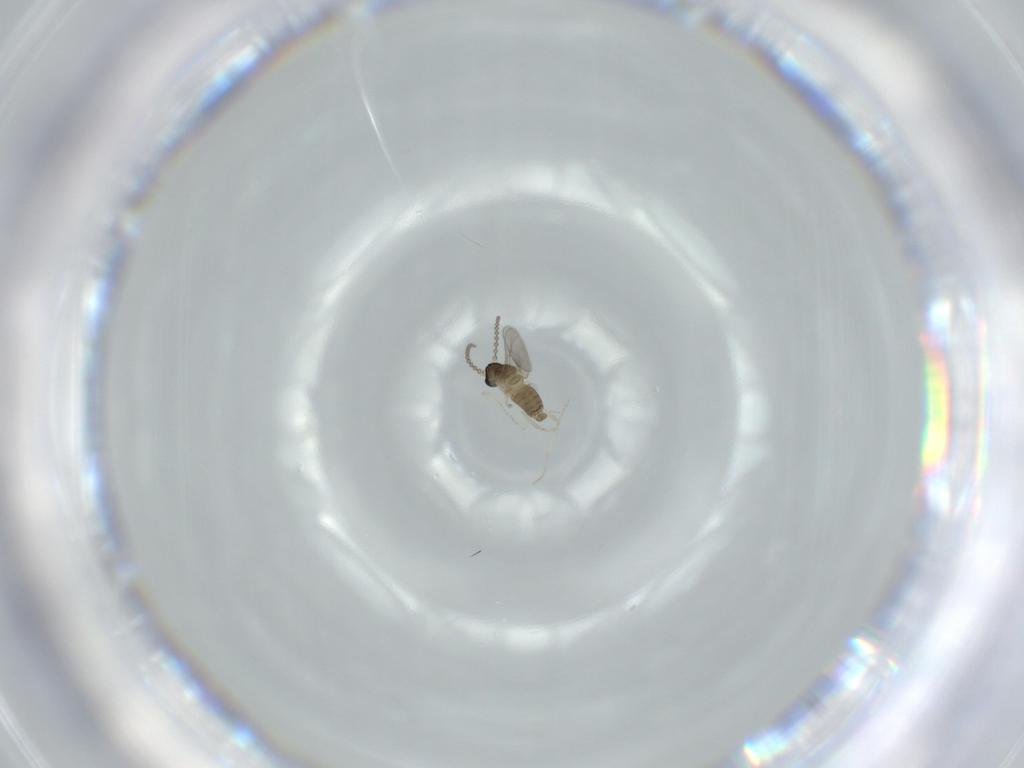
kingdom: Animalia
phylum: Arthropoda
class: Insecta
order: Diptera
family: Cecidomyiidae
